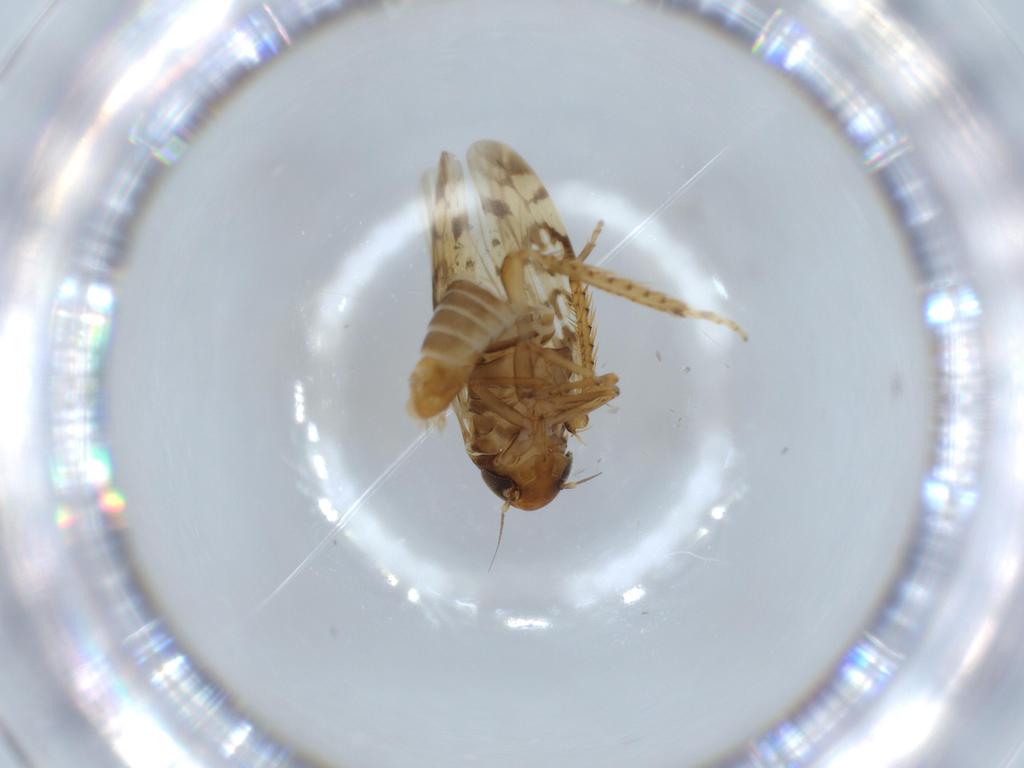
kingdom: Animalia
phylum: Arthropoda
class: Insecta
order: Hemiptera
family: Cicadellidae
